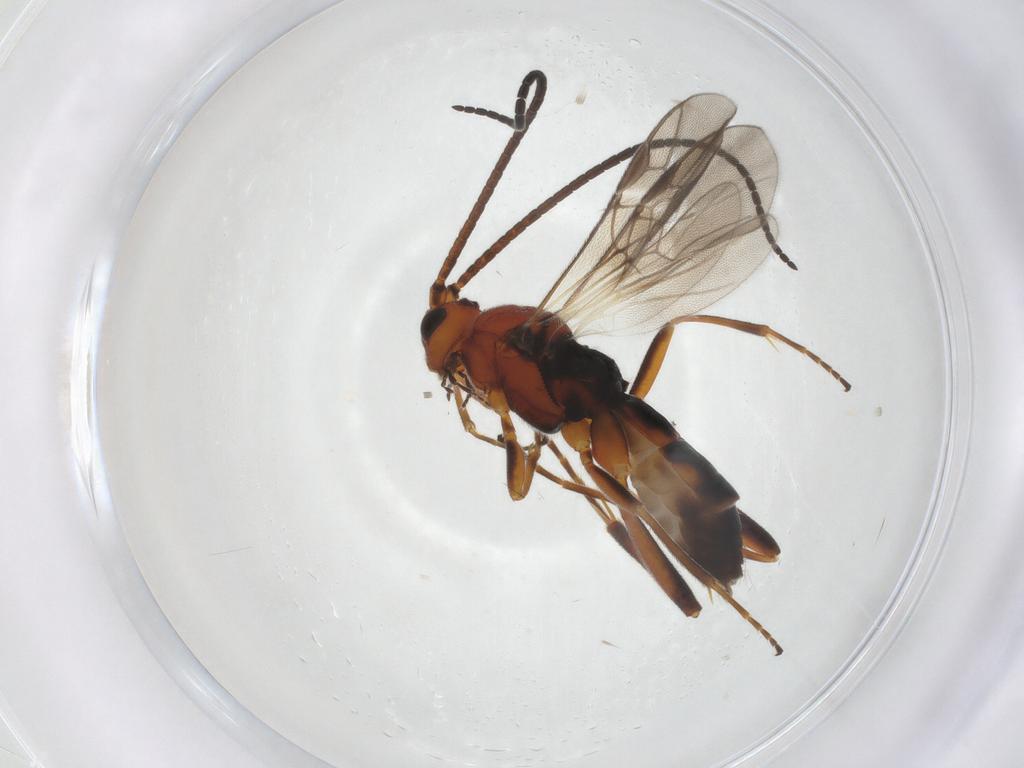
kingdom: Animalia
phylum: Arthropoda
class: Insecta
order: Hymenoptera
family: Braconidae
